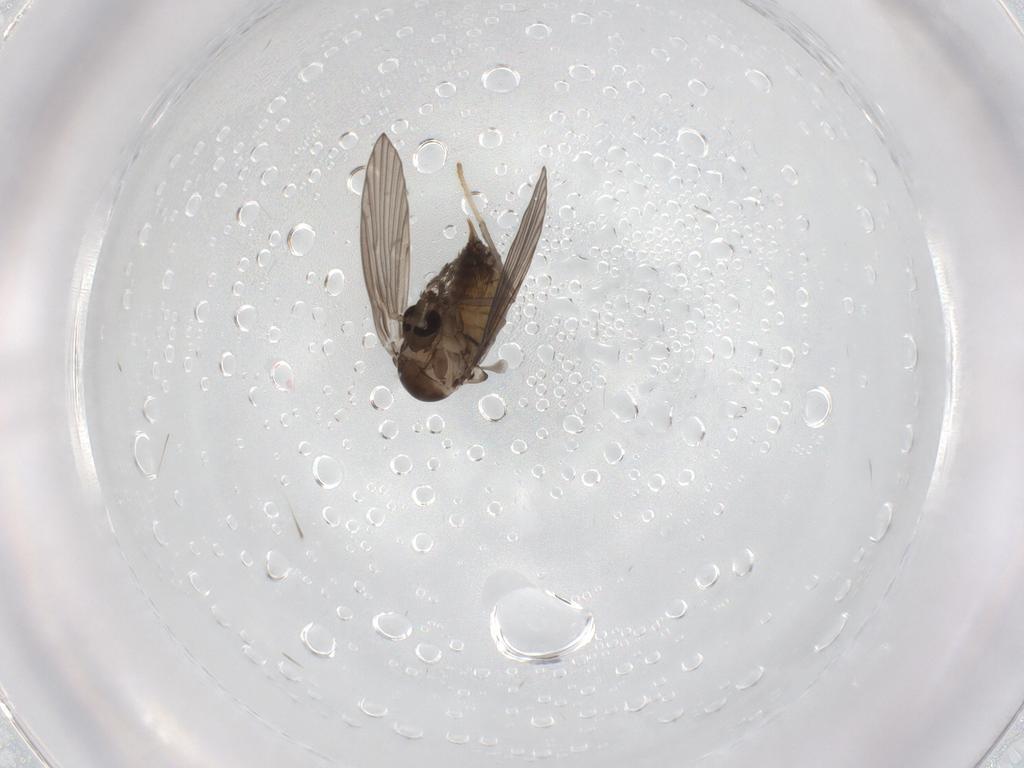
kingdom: Animalia
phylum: Arthropoda
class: Insecta
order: Diptera
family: Psychodidae
